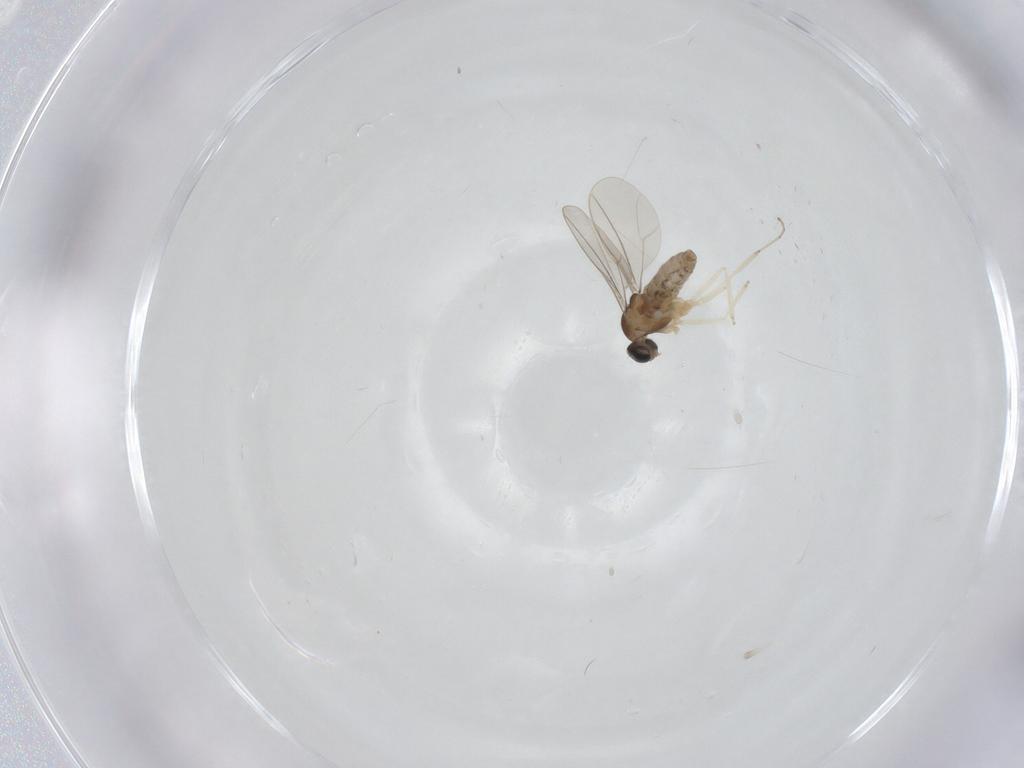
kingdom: Animalia
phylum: Arthropoda
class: Insecta
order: Diptera
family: Cecidomyiidae
